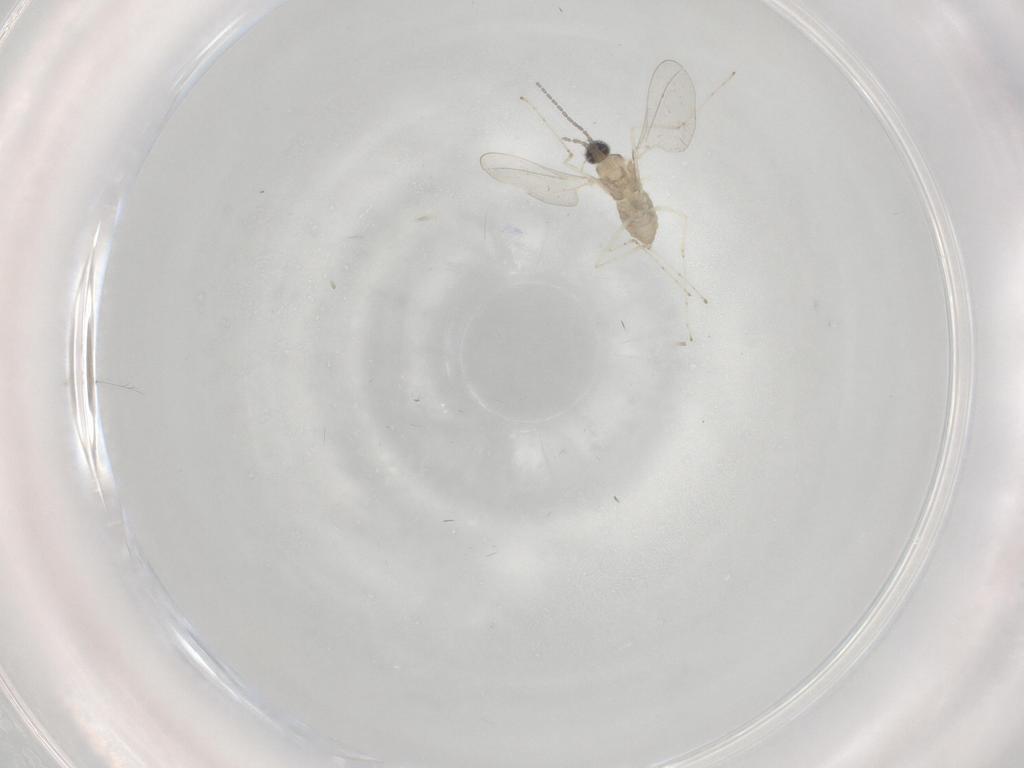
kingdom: Animalia
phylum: Arthropoda
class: Insecta
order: Diptera
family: Cecidomyiidae
